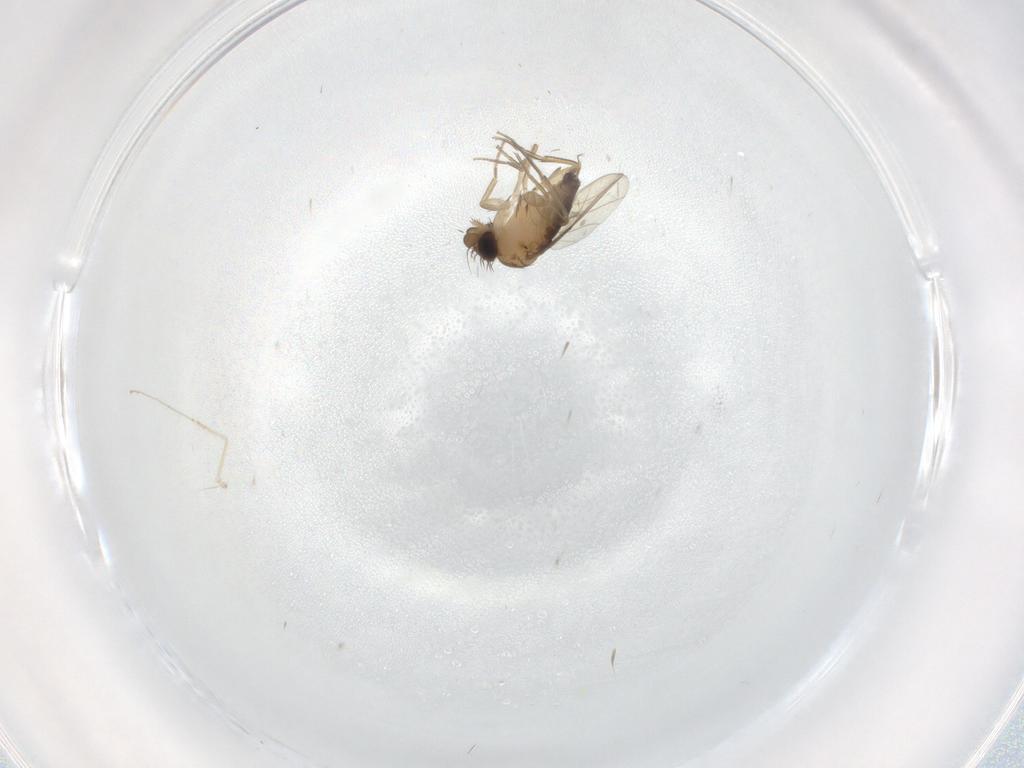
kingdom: Animalia
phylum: Arthropoda
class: Insecta
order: Diptera
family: Phoridae
